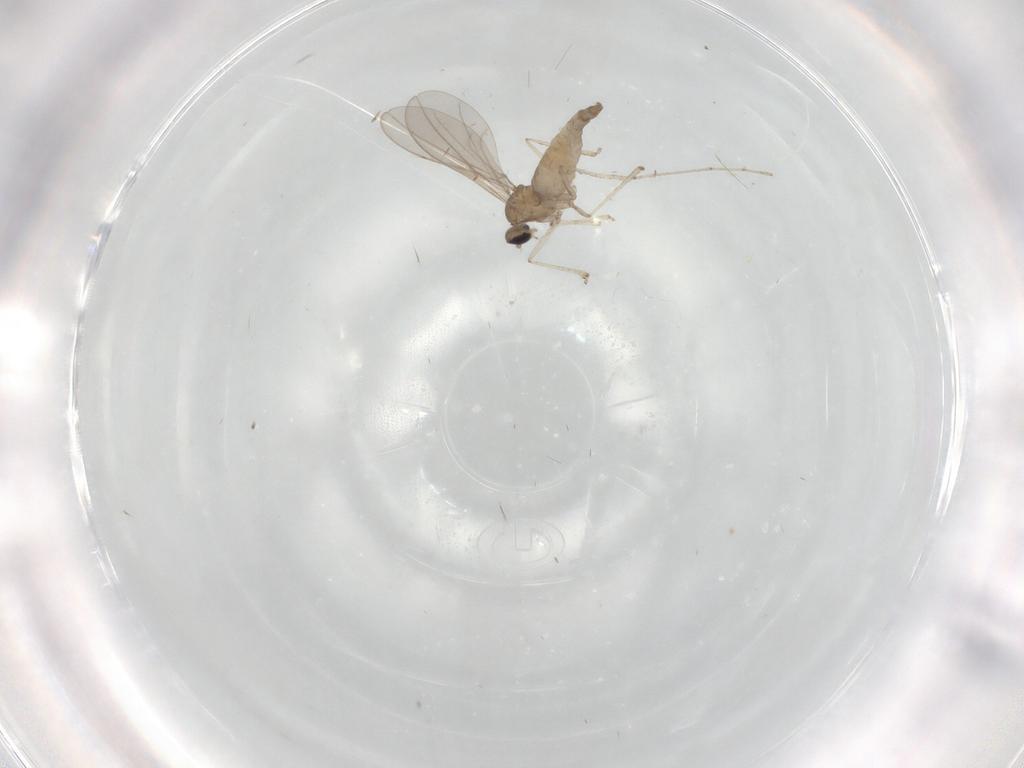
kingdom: Animalia
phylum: Arthropoda
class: Insecta
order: Diptera
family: Cecidomyiidae
